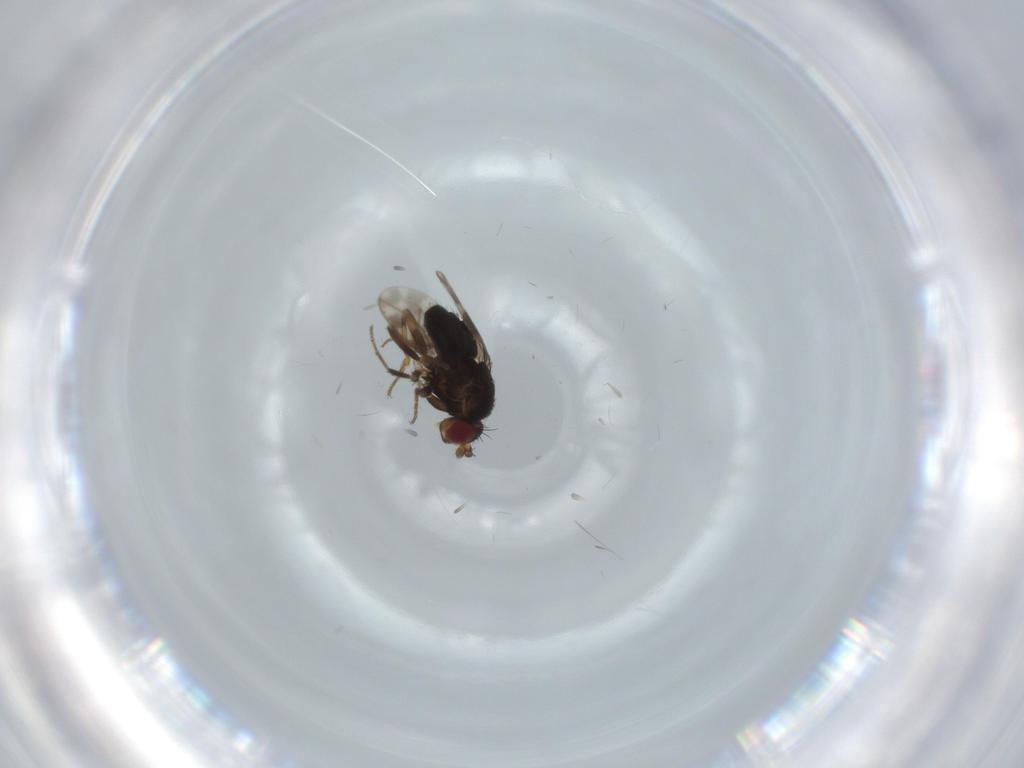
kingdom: Animalia
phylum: Arthropoda
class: Insecta
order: Diptera
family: Sphaeroceridae
